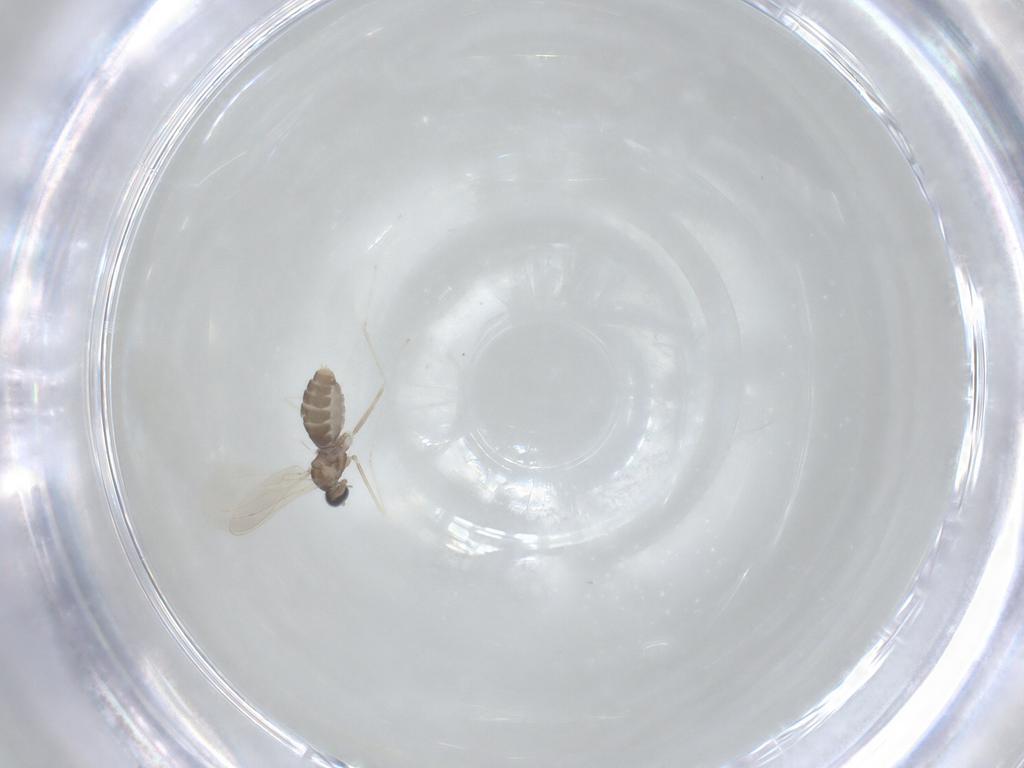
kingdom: Animalia
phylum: Arthropoda
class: Insecta
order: Diptera
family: Cecidomyiidae
